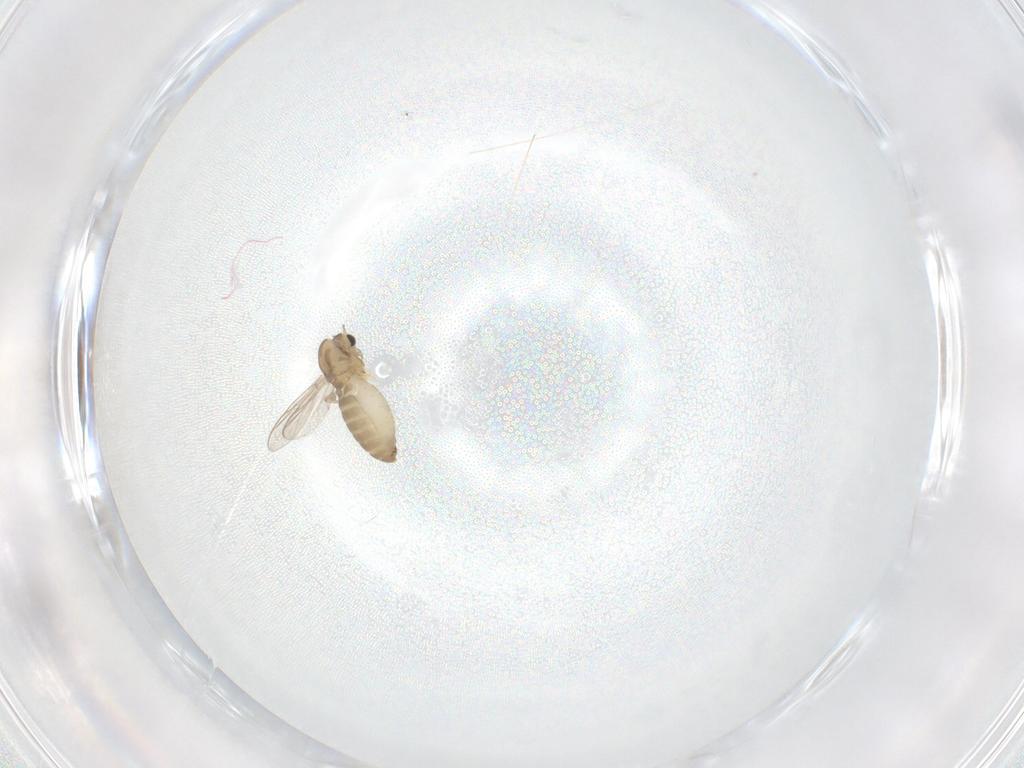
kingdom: Animalia
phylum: Arthropoda
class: Insecta
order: Diptera
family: Chironomidae
